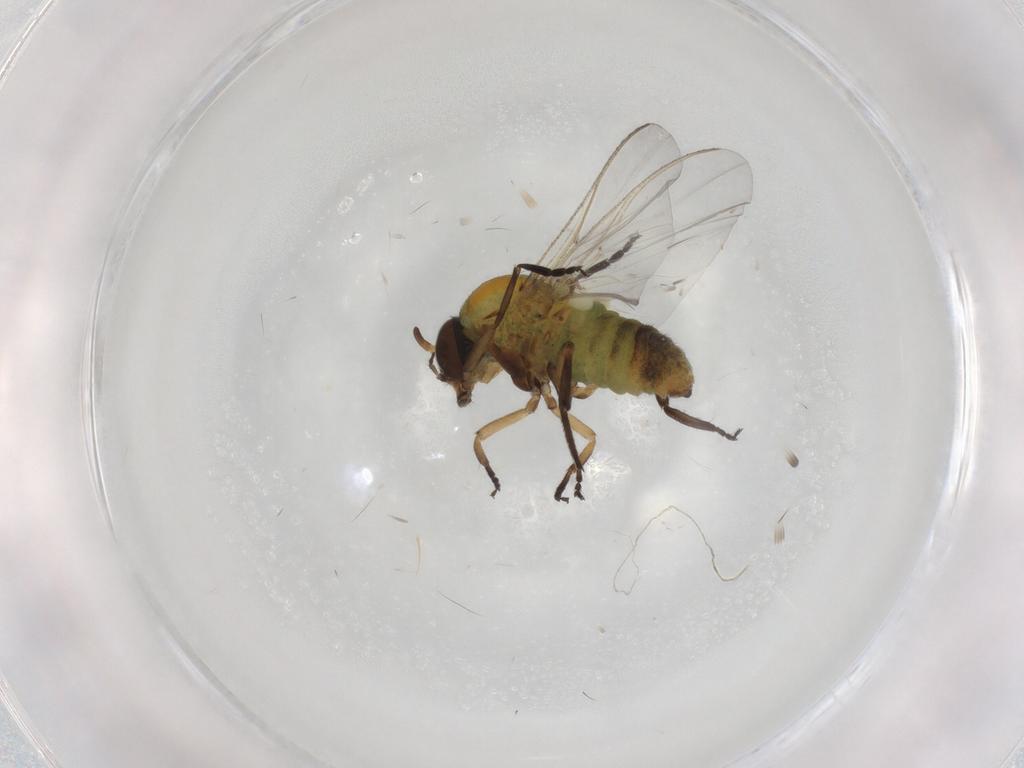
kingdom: Animalia
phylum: Arthropoda
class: Insecta
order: Diptera
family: Simuliidae
